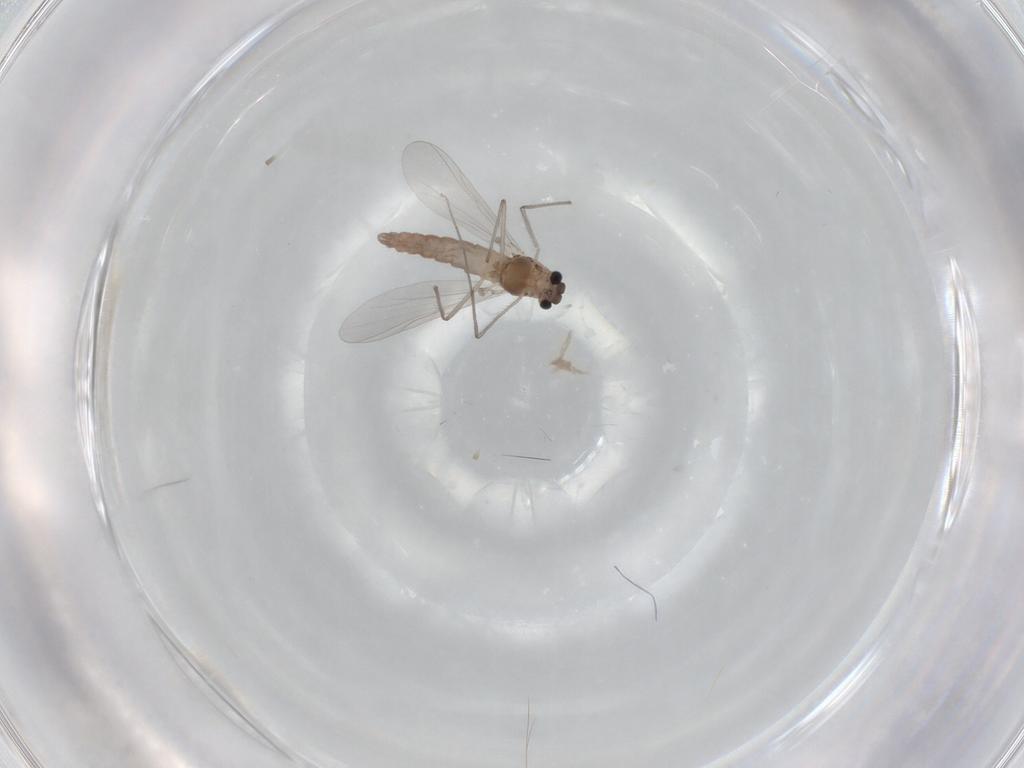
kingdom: Animalia
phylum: Arthropoda
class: Insecta
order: Diptera
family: Chironomidae
